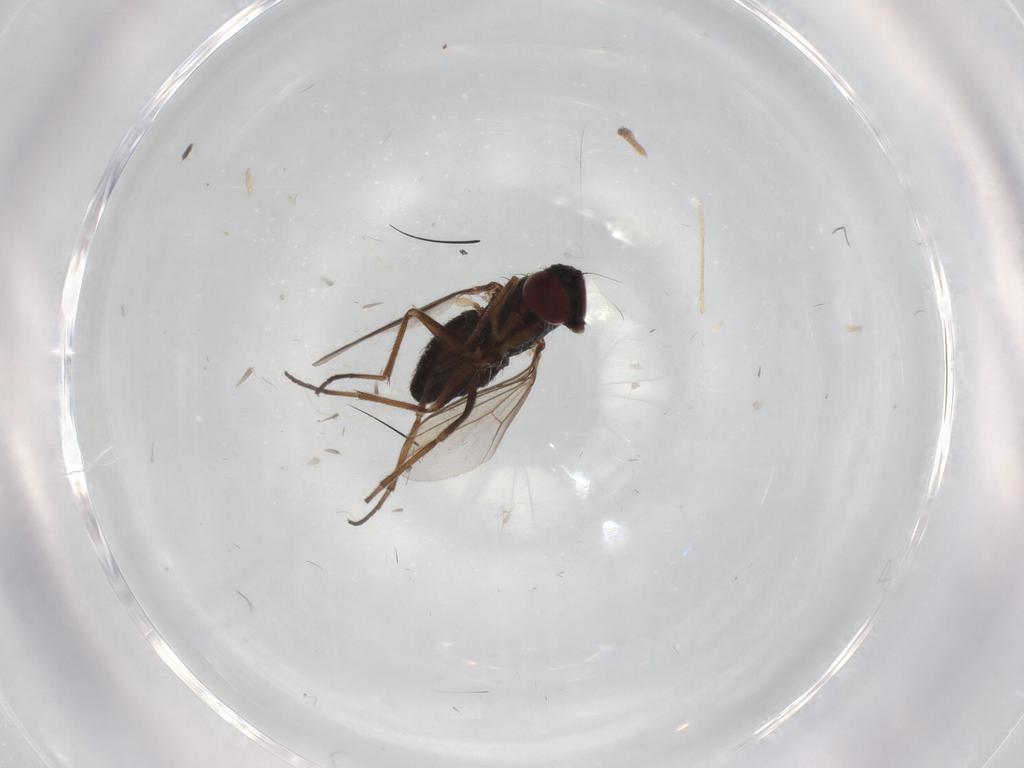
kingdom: Animalia
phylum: Arthropoda
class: Insecta
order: Diptera
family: Dolichopodidae
